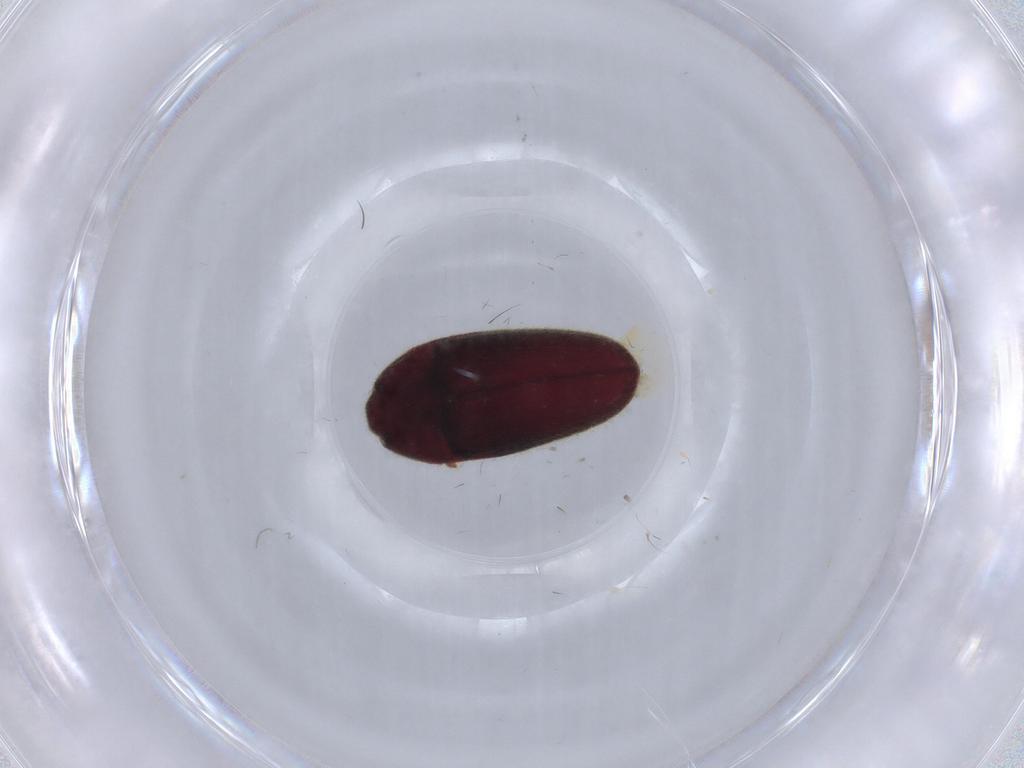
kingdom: Animalia
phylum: Arthropoda
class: Insecta
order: Coleoptera
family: Throscidae
